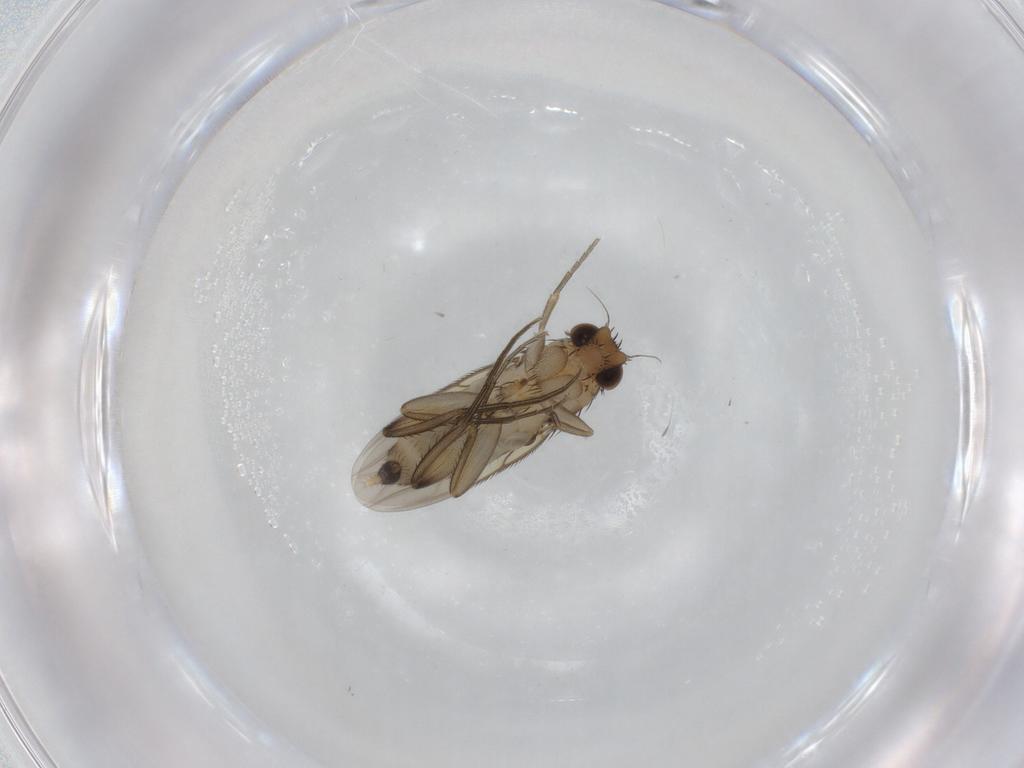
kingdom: Animalia
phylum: Arthropoda
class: Insecta
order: Diptera
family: Phoridae
